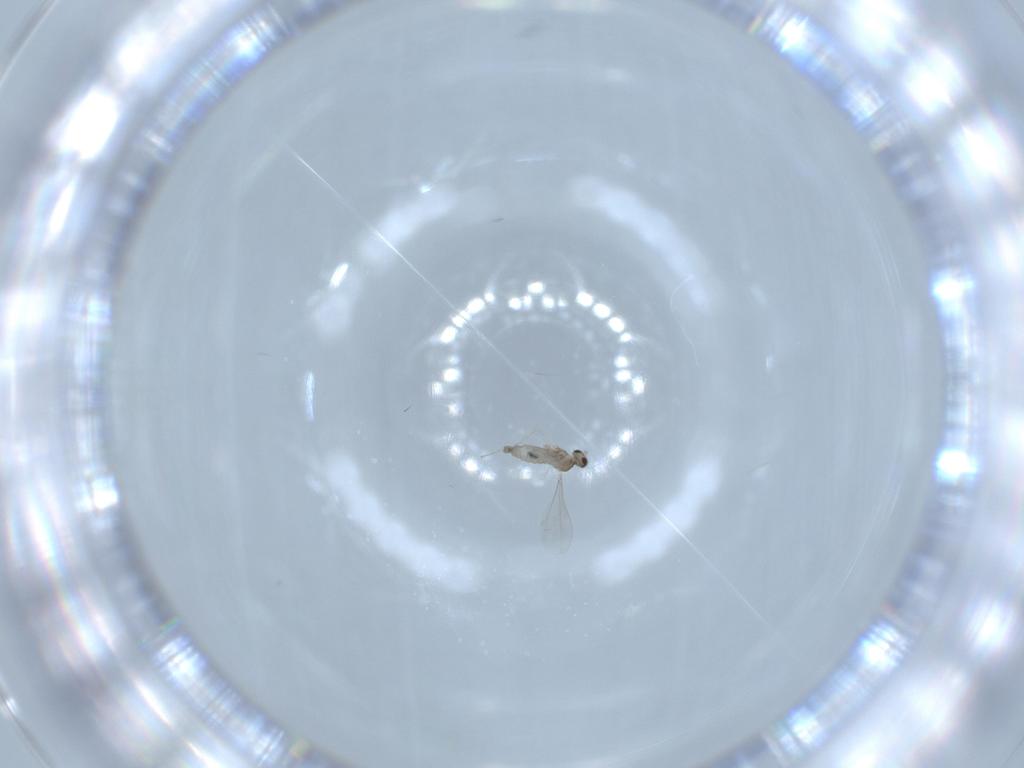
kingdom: Animalia
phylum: Arthropoda
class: Insecta
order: Diptera
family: Cecidomyiidae
